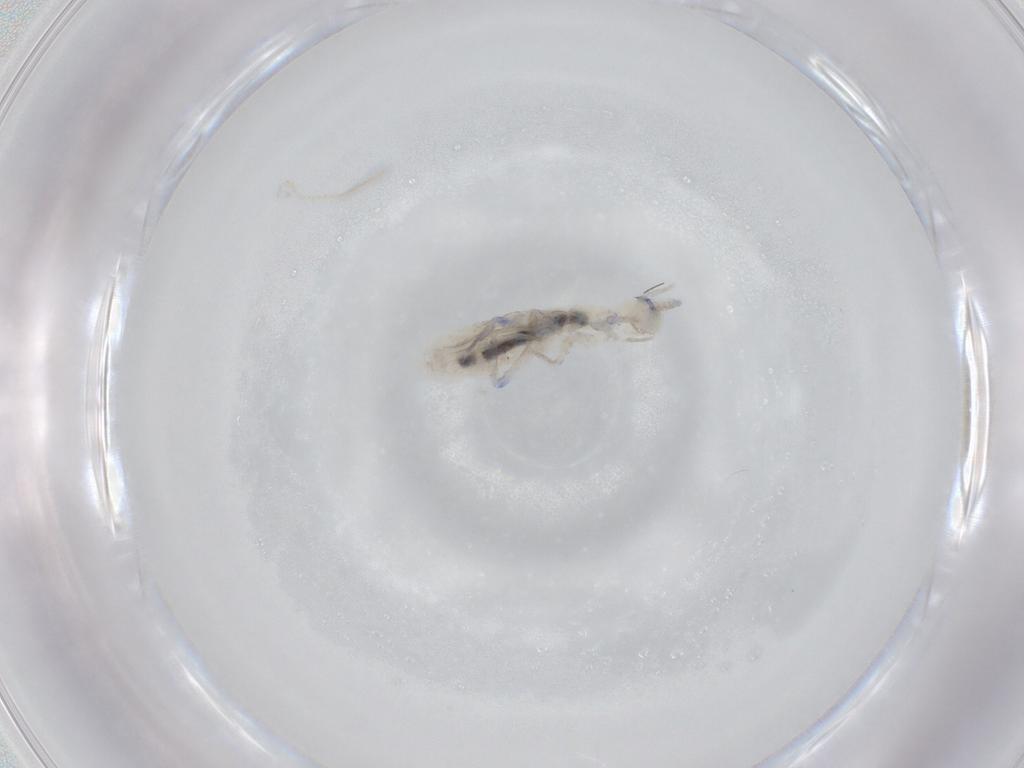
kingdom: Animalia
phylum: Arthropoda
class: Collembola
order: Entomobryomorpha
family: Tomoceridae
